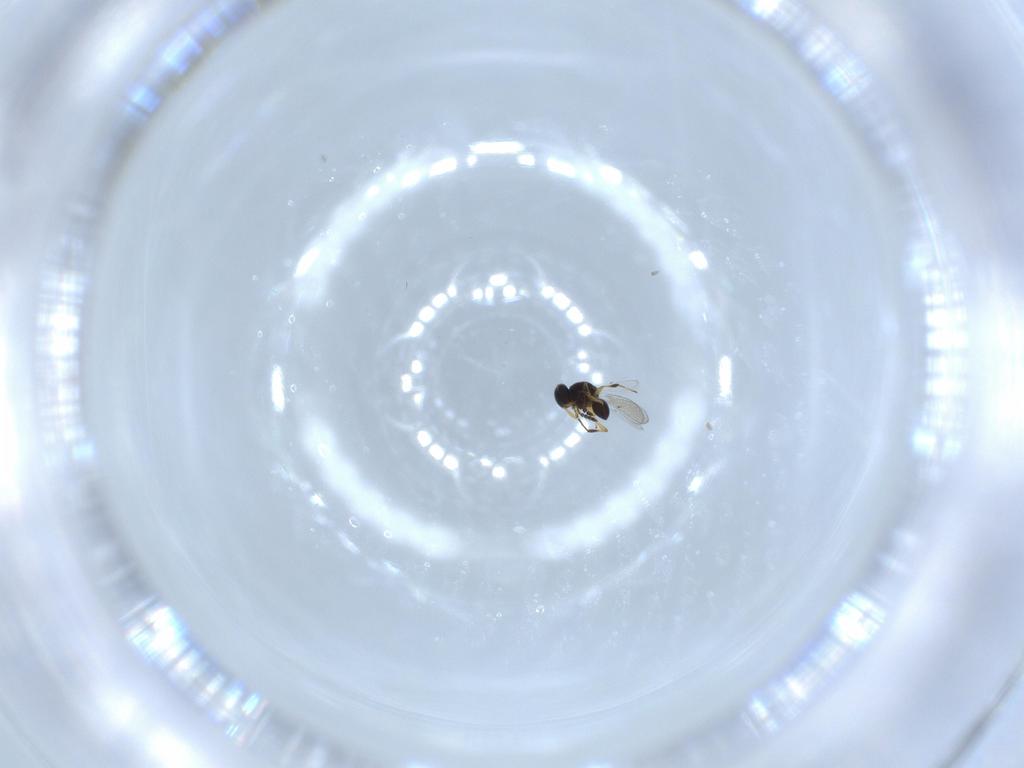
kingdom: Animalia
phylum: Arthropoda
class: Insecta
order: Hymenoptera
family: Platygastridae
